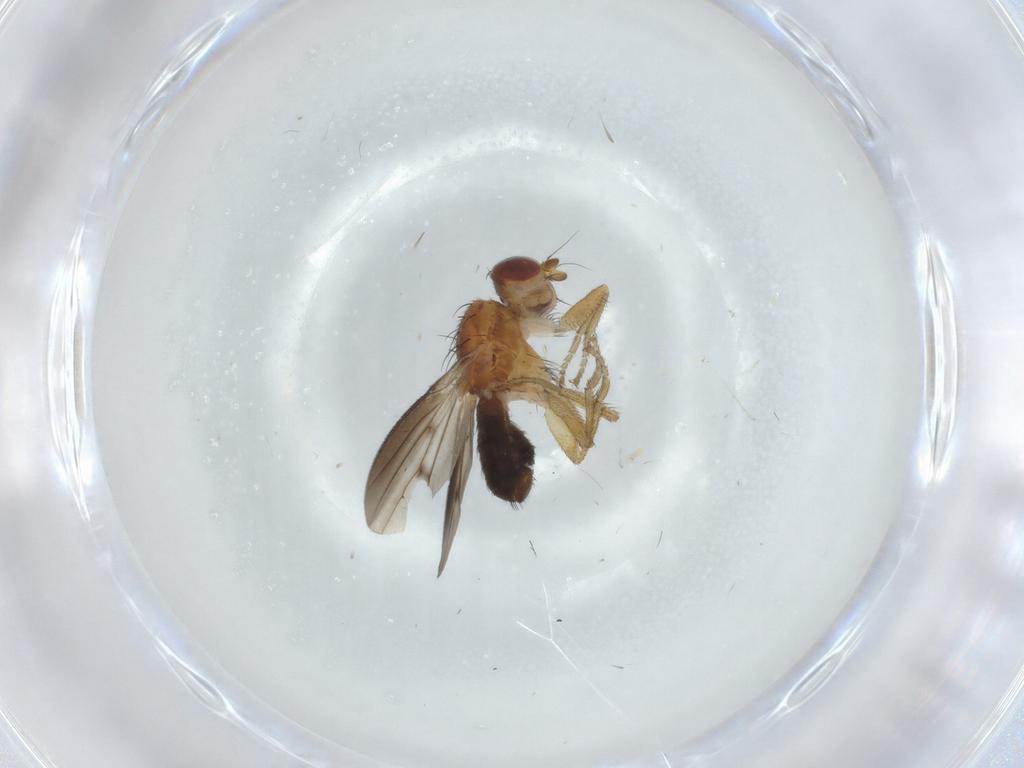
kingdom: Animalia
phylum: Arthropoda
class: Insecta
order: Diptera
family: Heleomyzidae
